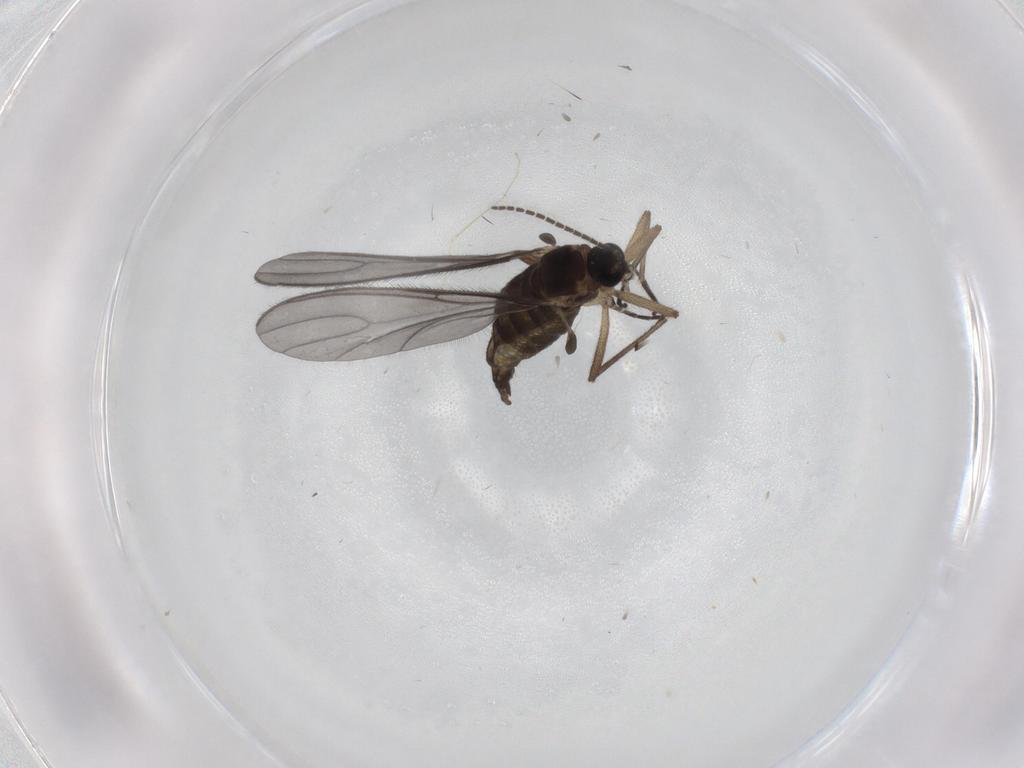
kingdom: Animalia
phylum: Arthropoda
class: Insecta
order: Diptera
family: Sciaridae
